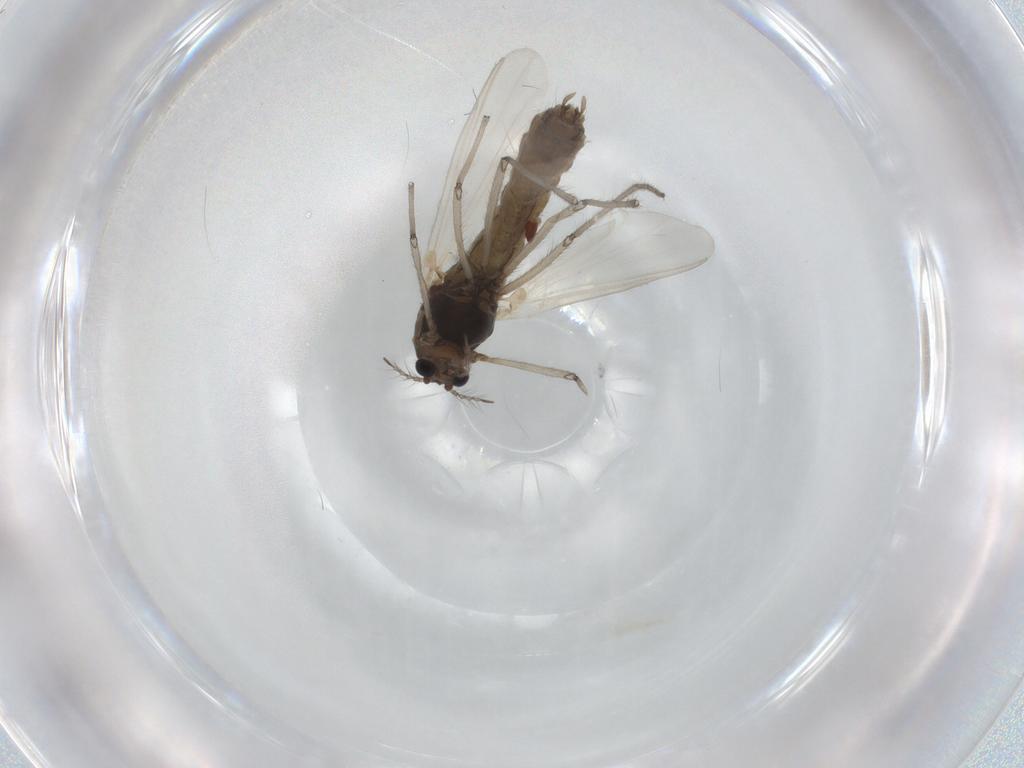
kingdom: Animalia
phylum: Arthropoda
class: Insecta
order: Diptera
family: Chironomidae
